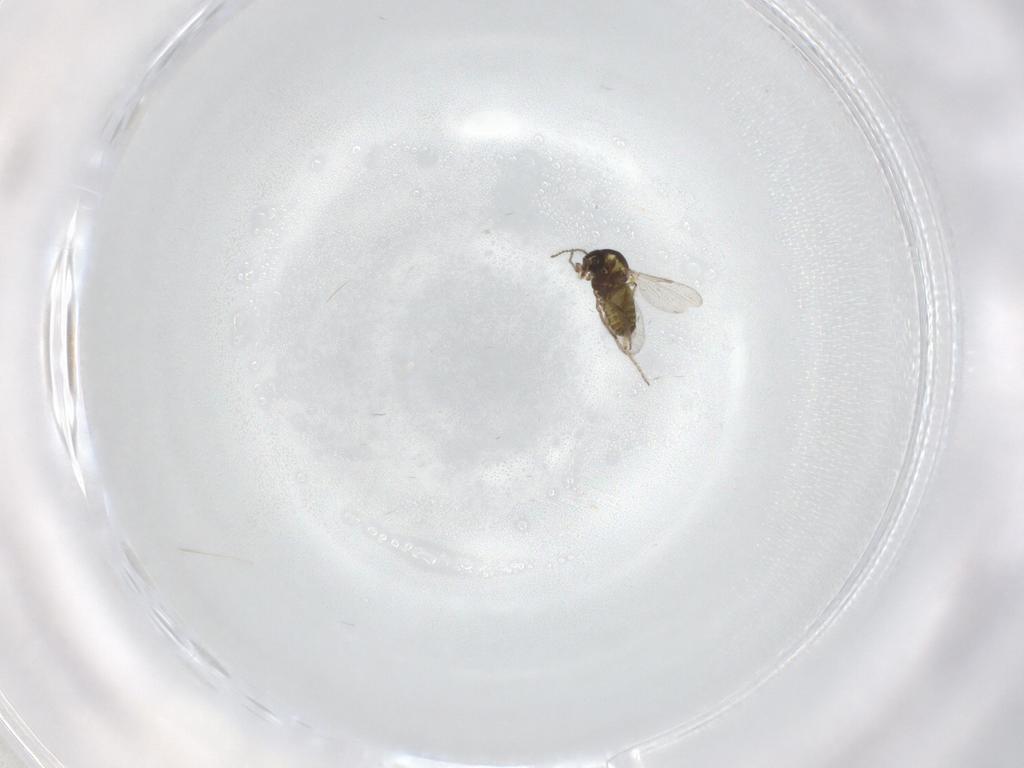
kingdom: Animalia
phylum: Arthropoda
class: Insecta
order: Diptera
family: Ceratopogonidae
